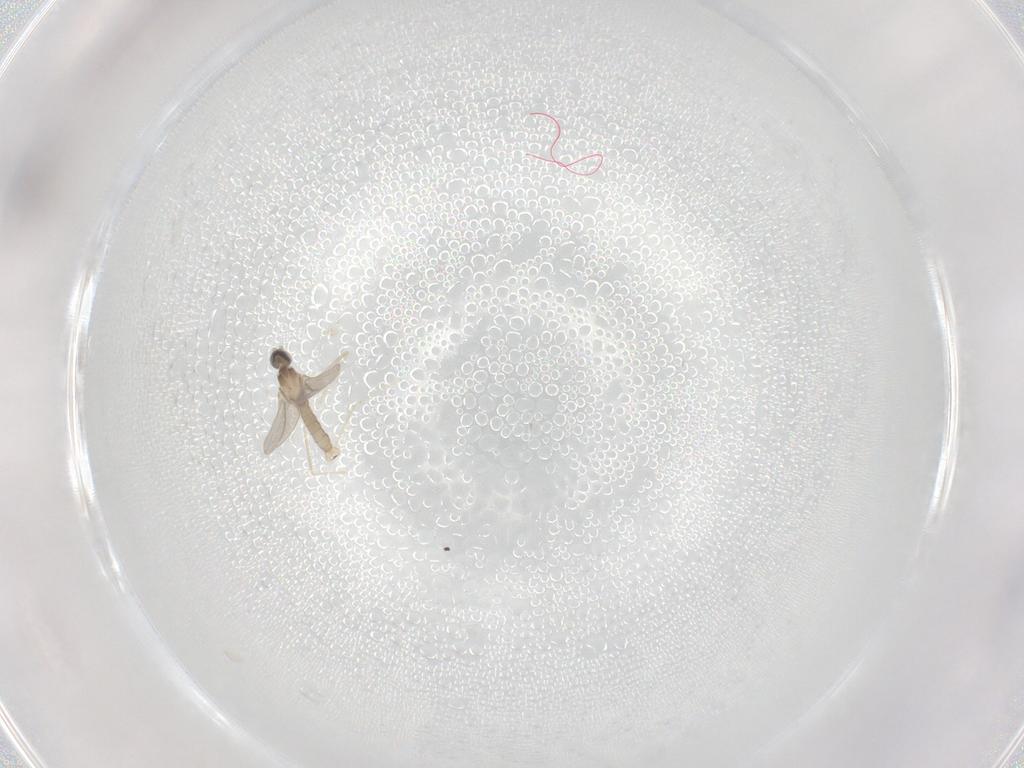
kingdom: Animalia
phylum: Arthropoda
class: Insecta
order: Diptera
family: Cecidomyiidae
